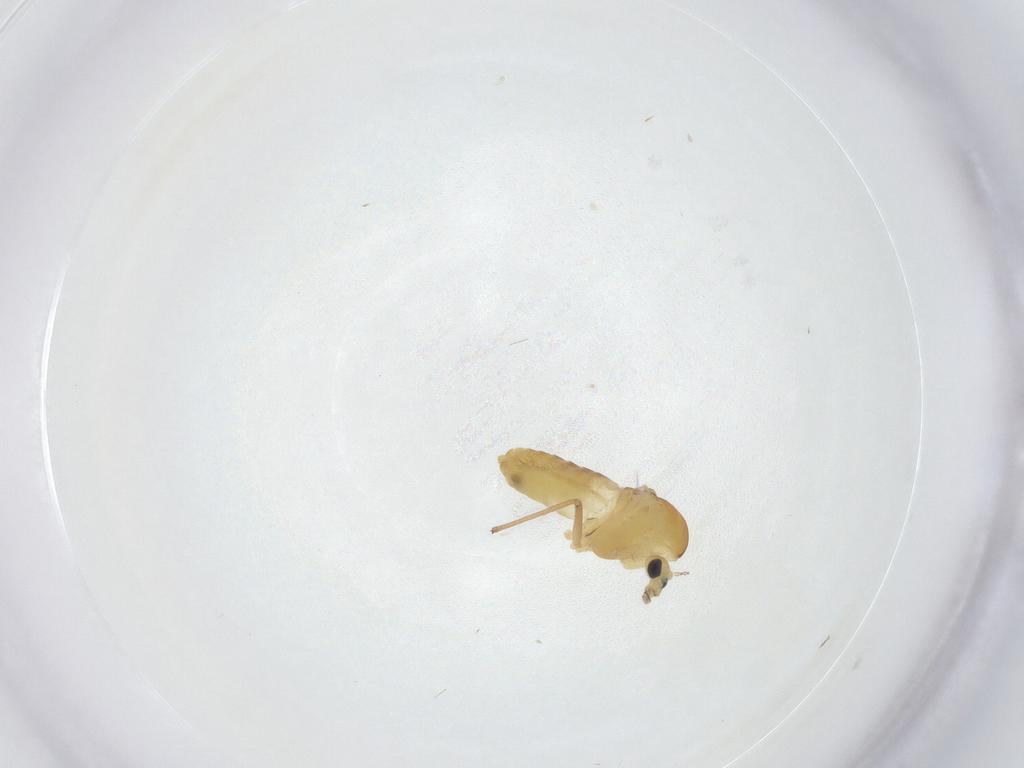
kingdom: Animalia
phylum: Arthropoda
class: Insecta
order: Diptera
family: Chironomidae
